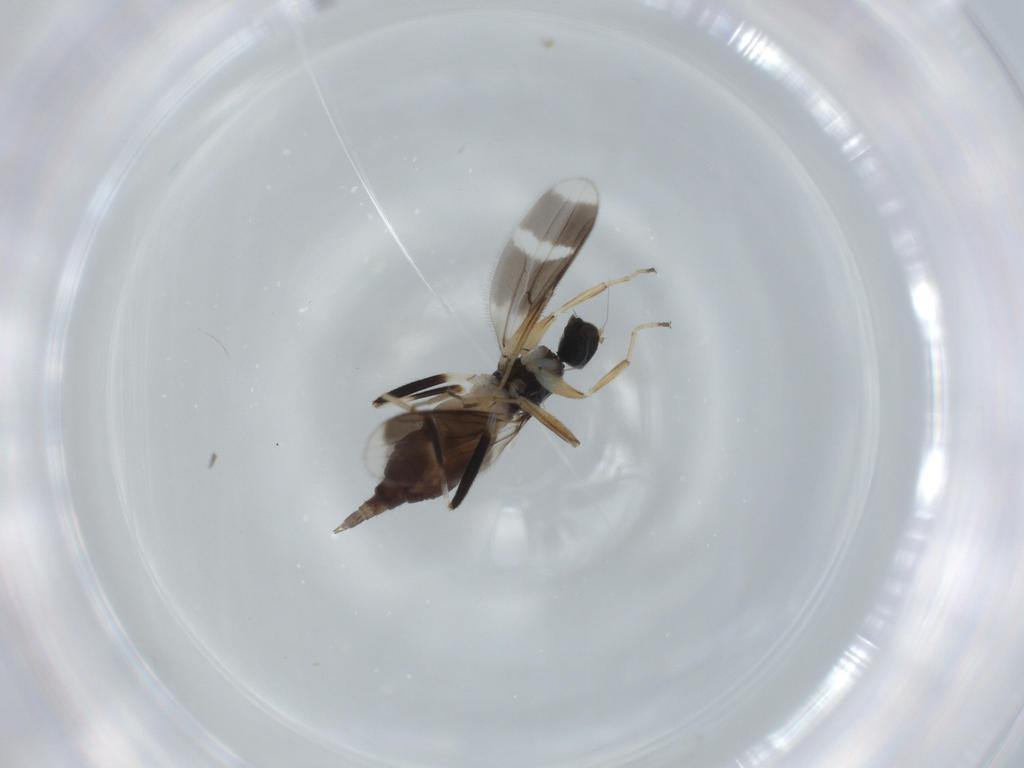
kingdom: Animalia
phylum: Arthropoda
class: Insecta
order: Diptera
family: Hybotidae
